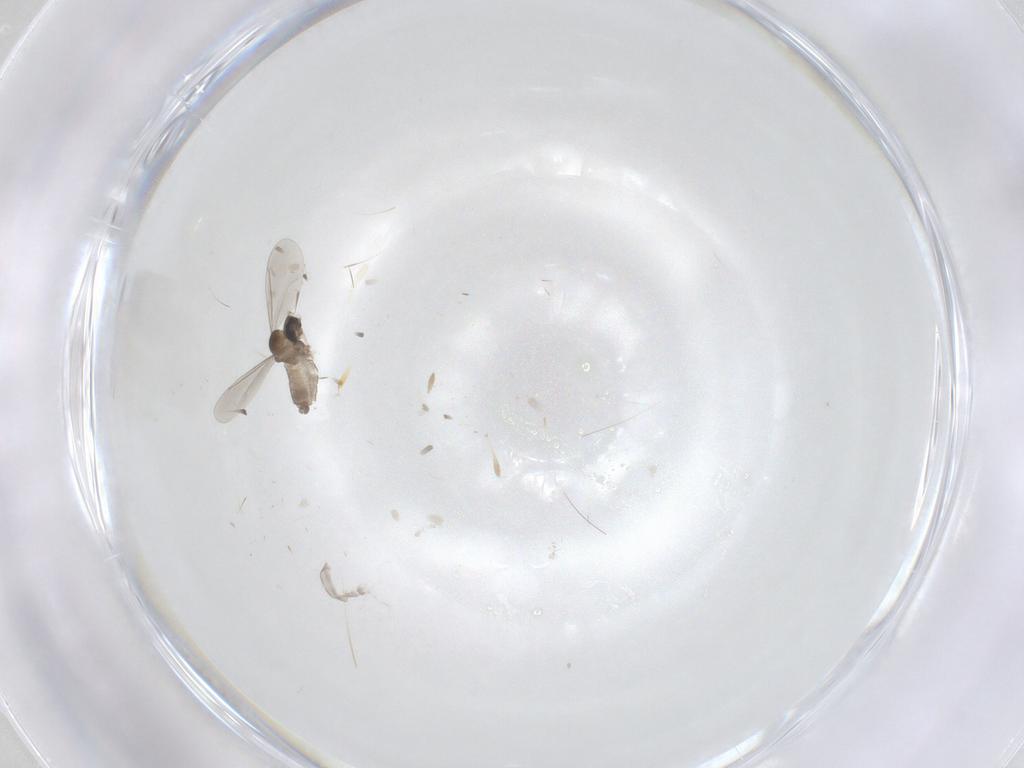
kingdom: Animalia
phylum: Arthropoda
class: Insecta
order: Diptera
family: Cecidomyiidae
